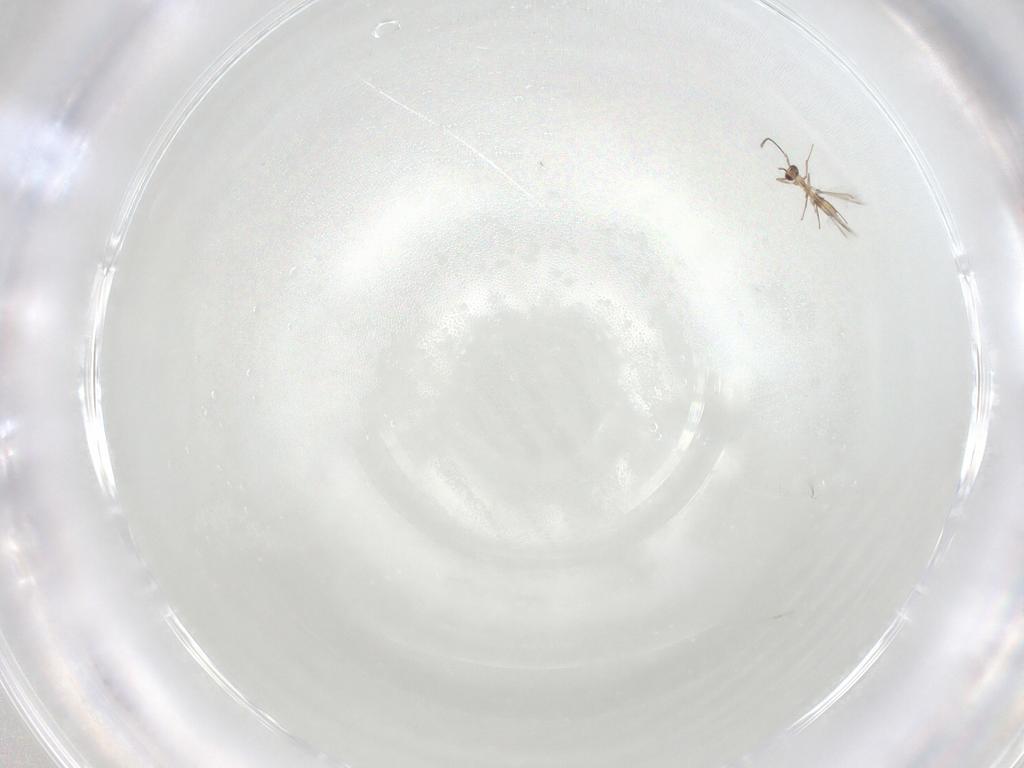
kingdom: Animalia
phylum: Arthropoda
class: Insecta
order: Hymenoptera
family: Mymaridae
